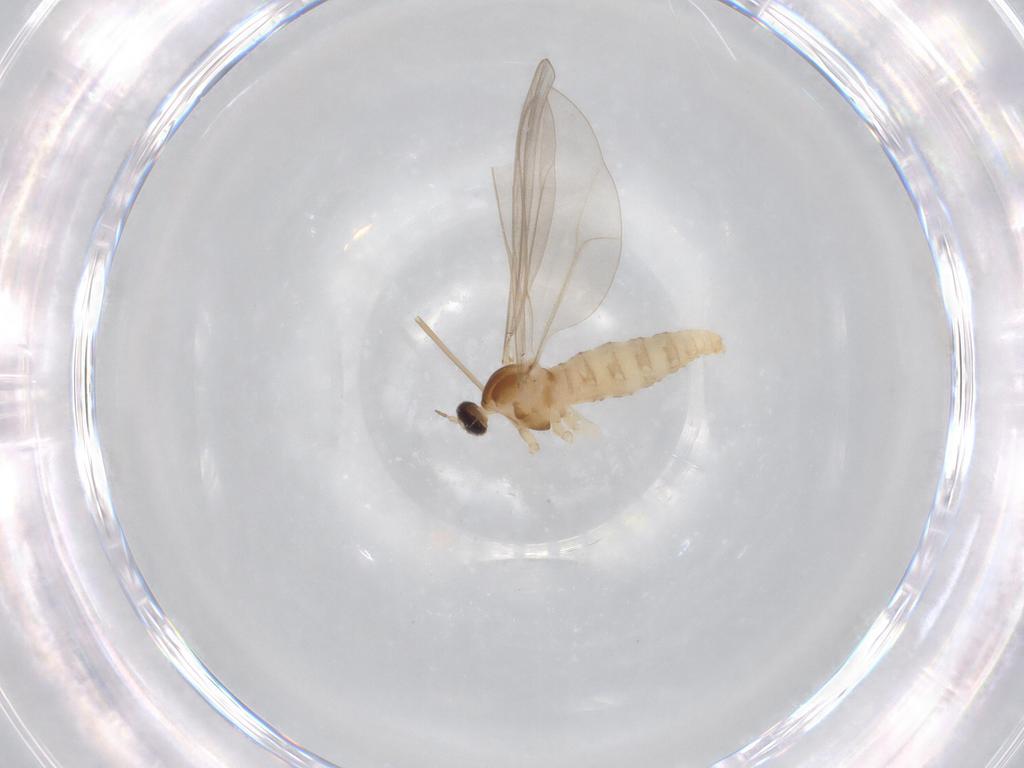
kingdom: Animalia
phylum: Arthropoda
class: Insecta
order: Diptera
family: Cecidomyiidae
